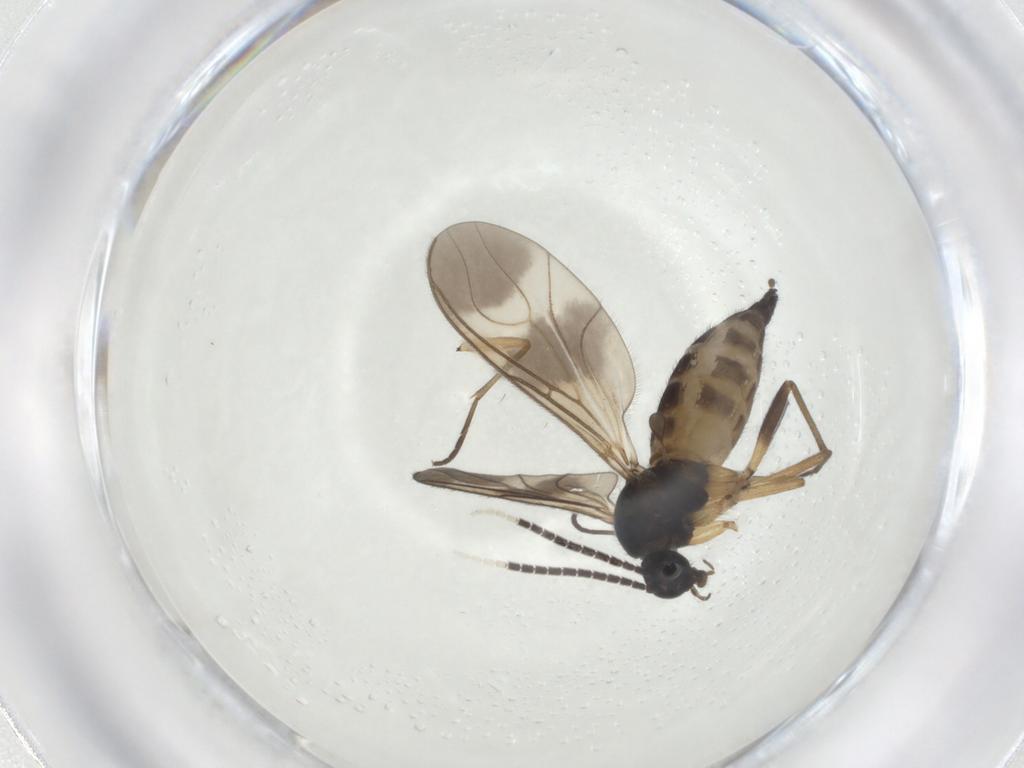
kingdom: Animalia
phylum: Arthropoda
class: Insecta
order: Diptera
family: Sciaridae
